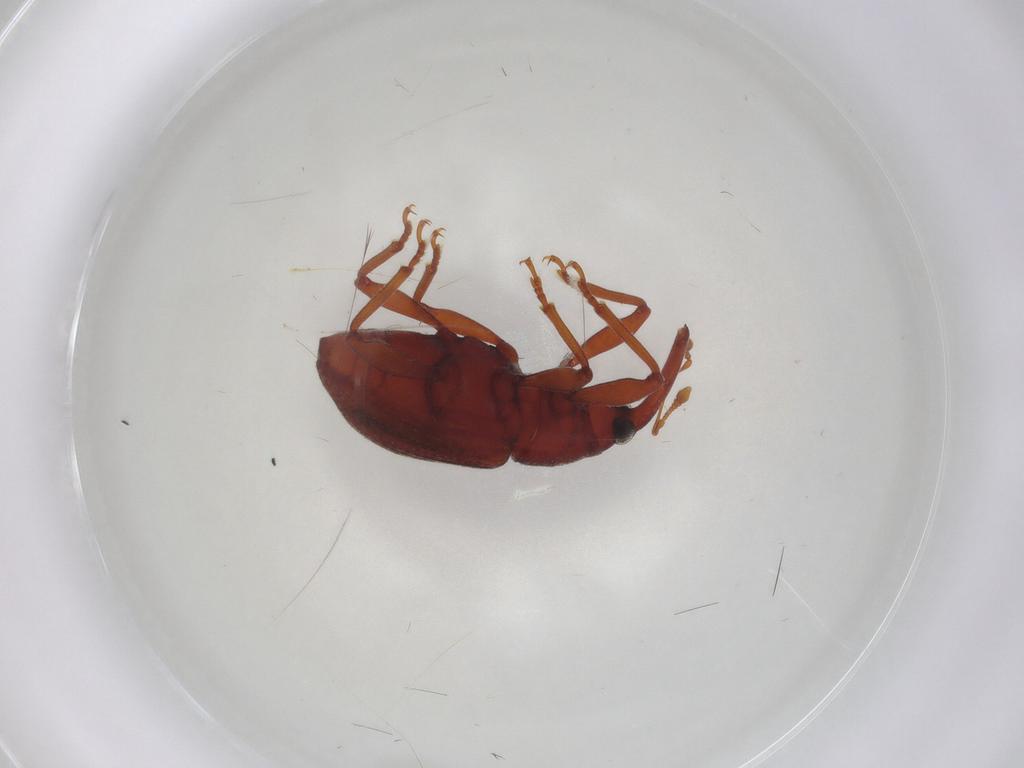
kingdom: Animalia
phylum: Arthropoda
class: Insecta
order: Coleoptera
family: Curculionidae
